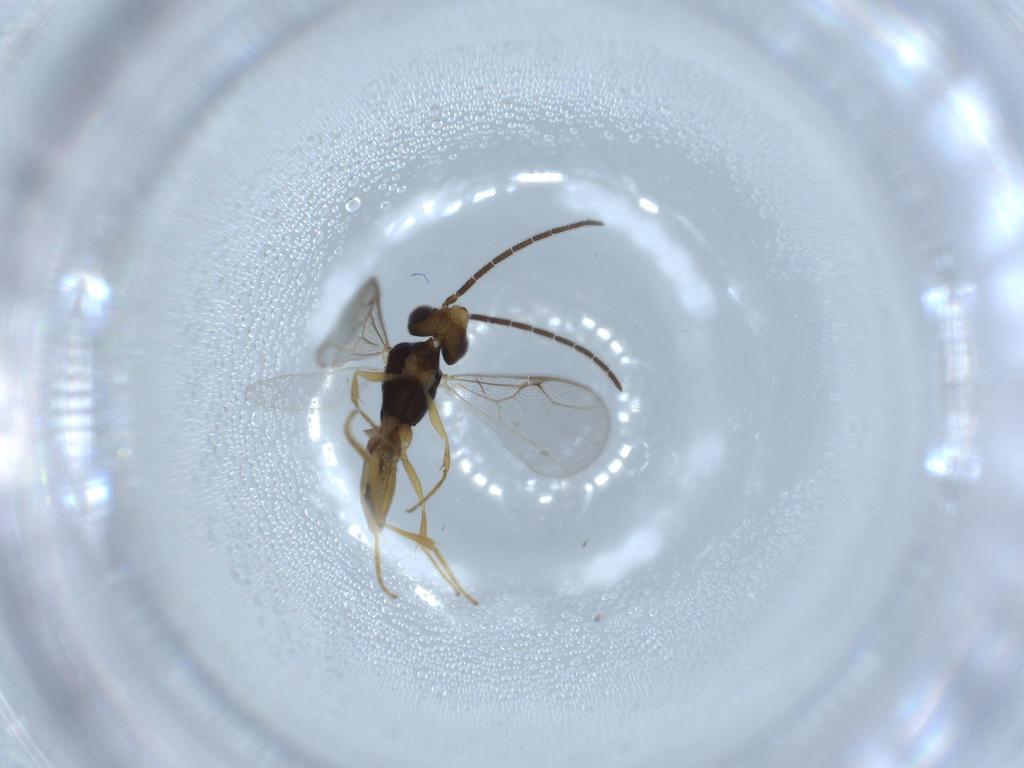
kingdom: Animalia
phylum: Arthropoda
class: Insecta
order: Hymenoptera
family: Dryinidae
